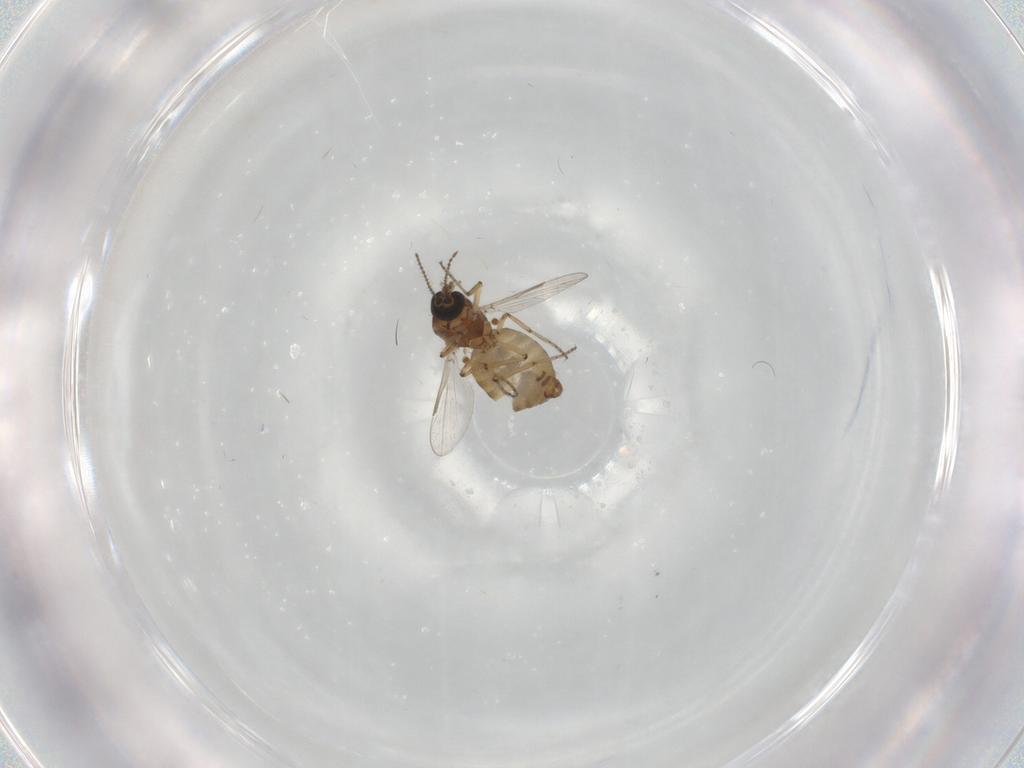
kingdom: Animalia
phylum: Arthropoda
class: Insecta
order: Diptera
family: Ceratopogonidae
